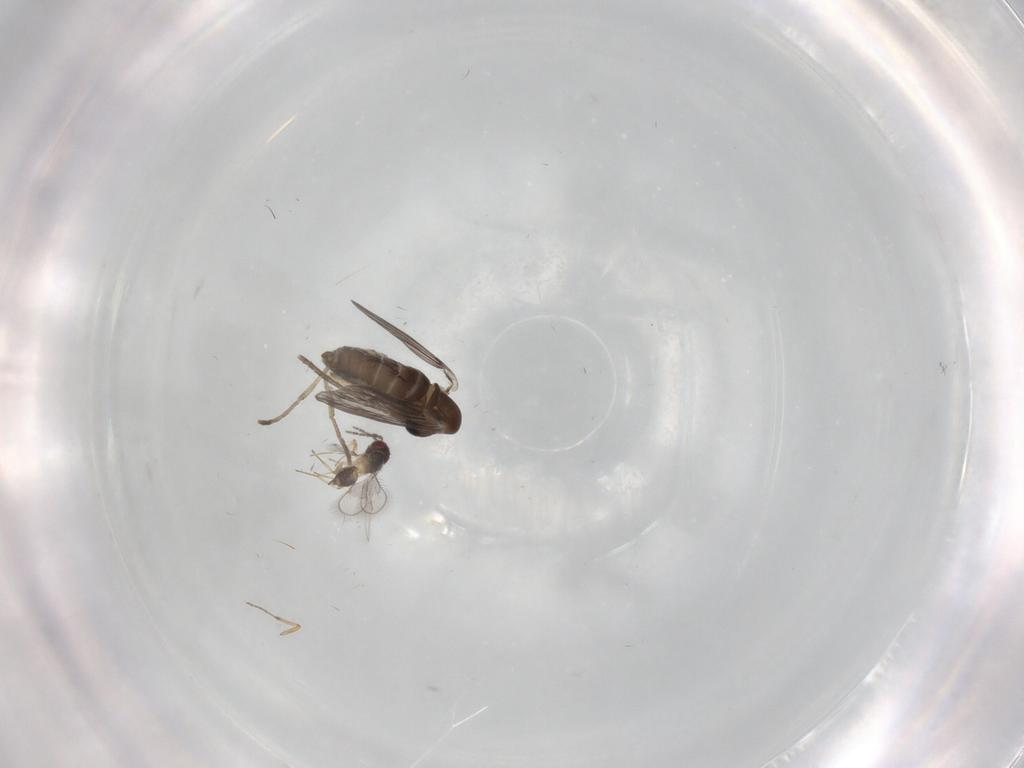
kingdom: Animalia
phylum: Arthropoda
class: Insecta
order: Hymenoptera
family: Eulophidae
